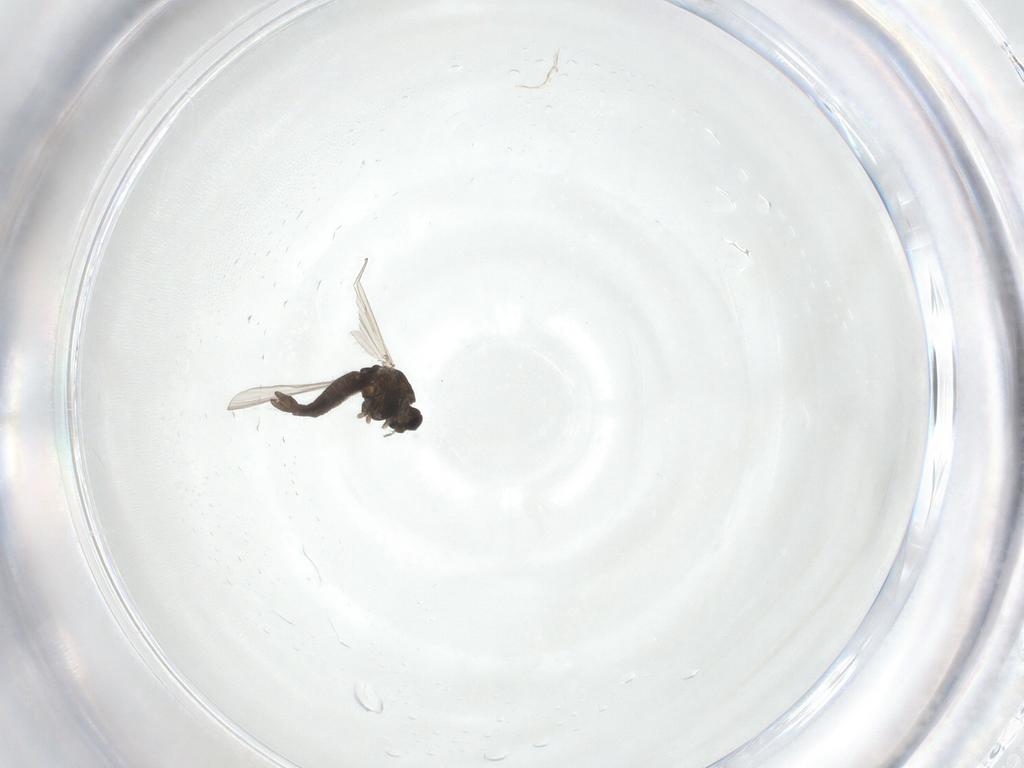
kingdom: Animalia
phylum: Arthropoda
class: Insecta
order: Diptera
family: Chironomidae
